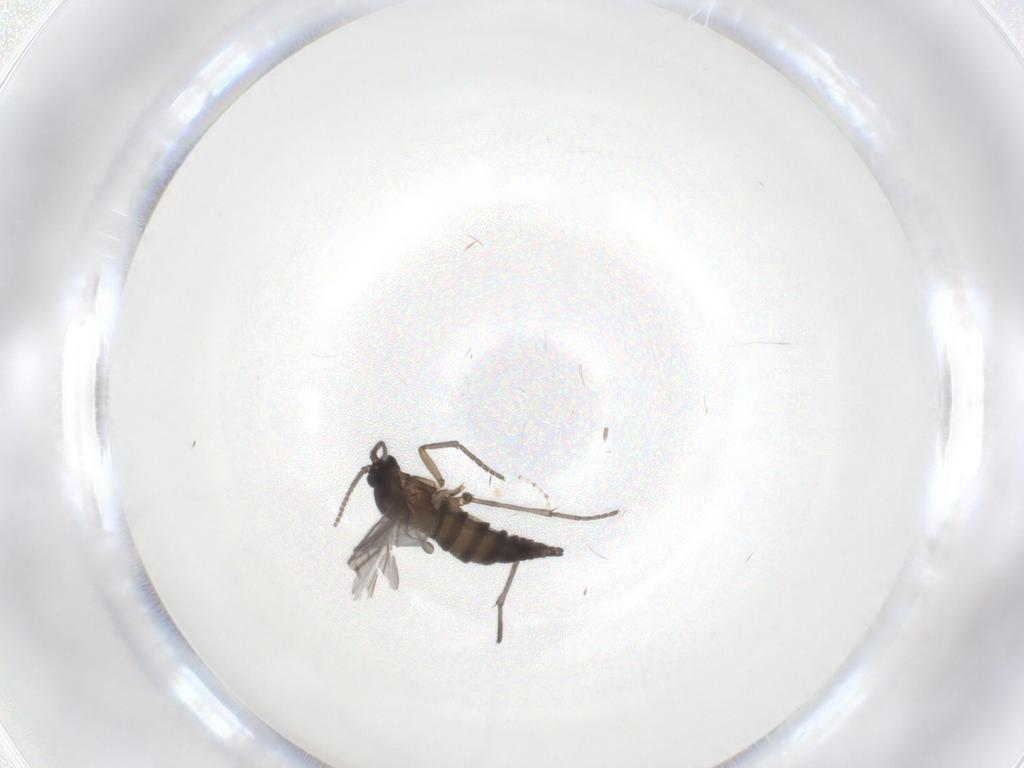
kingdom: Animalia
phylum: Arthropoda
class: Insecta
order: Diptera
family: Sciaridae
